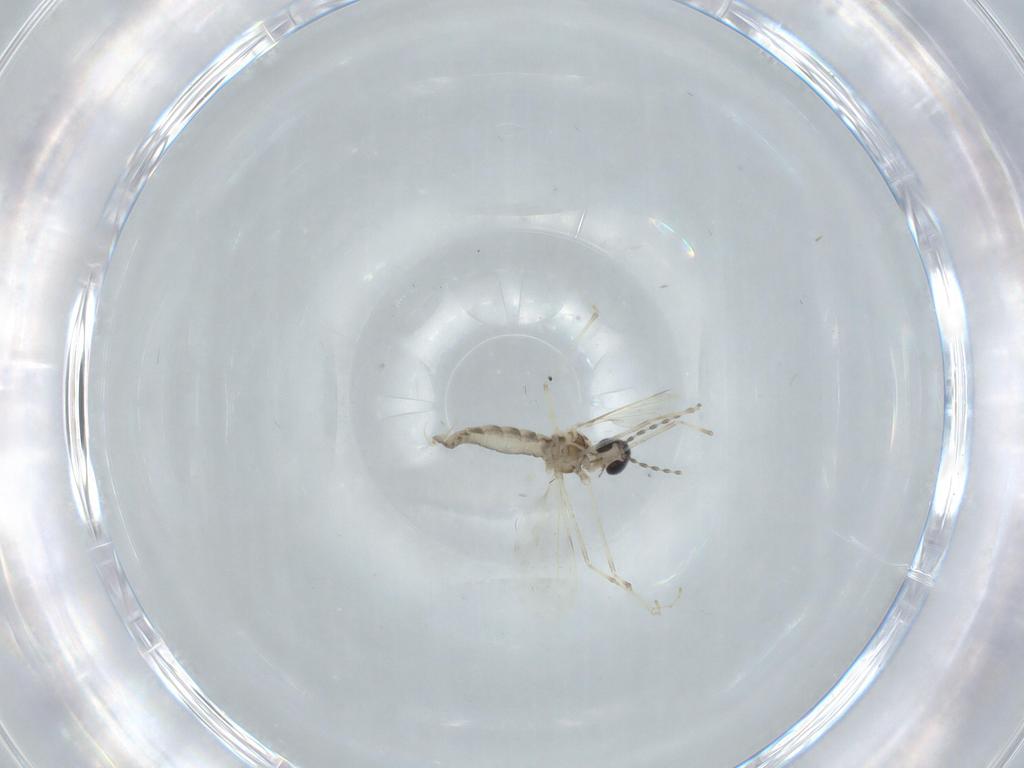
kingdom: Animalia
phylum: Arthropoda
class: Insecta
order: Diptera
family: Cecidomyiidae
